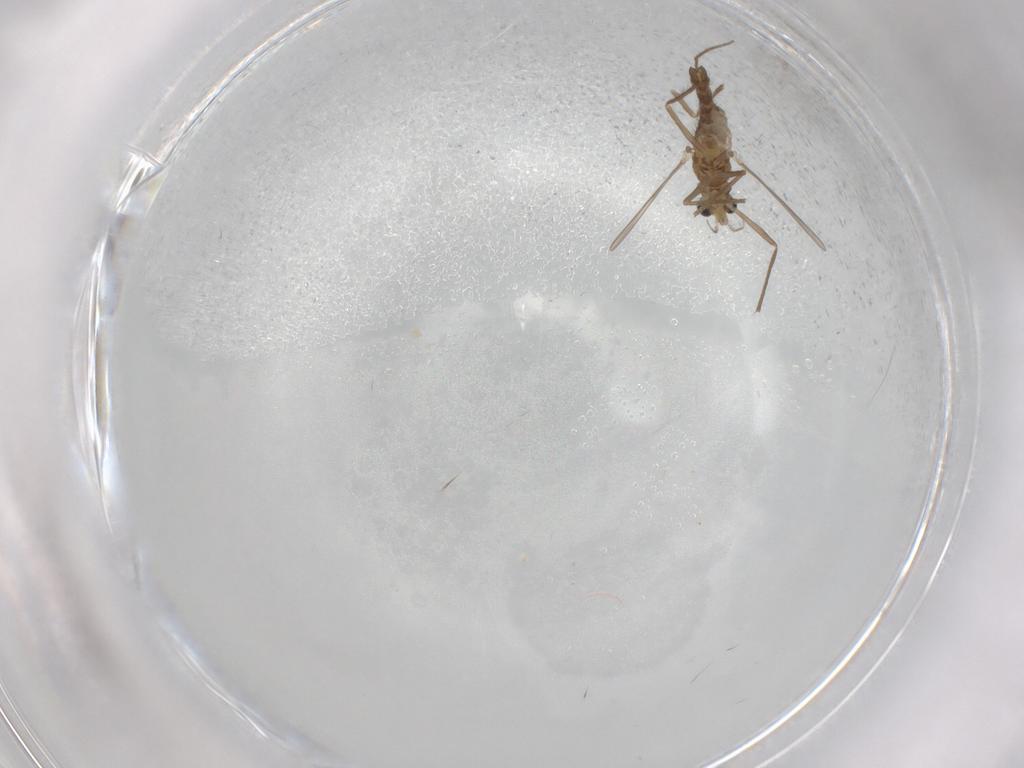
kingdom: Animalia
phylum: Arthropoda
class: Insecta
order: Diptera
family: Chironomidae
